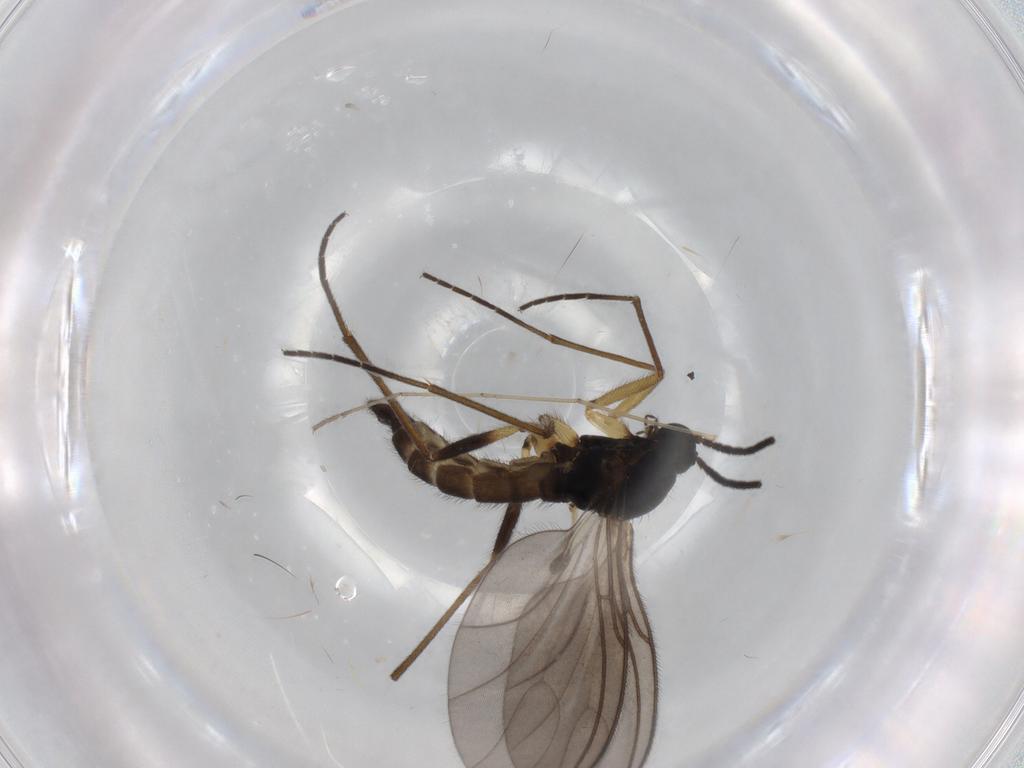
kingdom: Animalia
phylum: Arthropoda
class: Insecta
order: Diptera
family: Sciaridae
